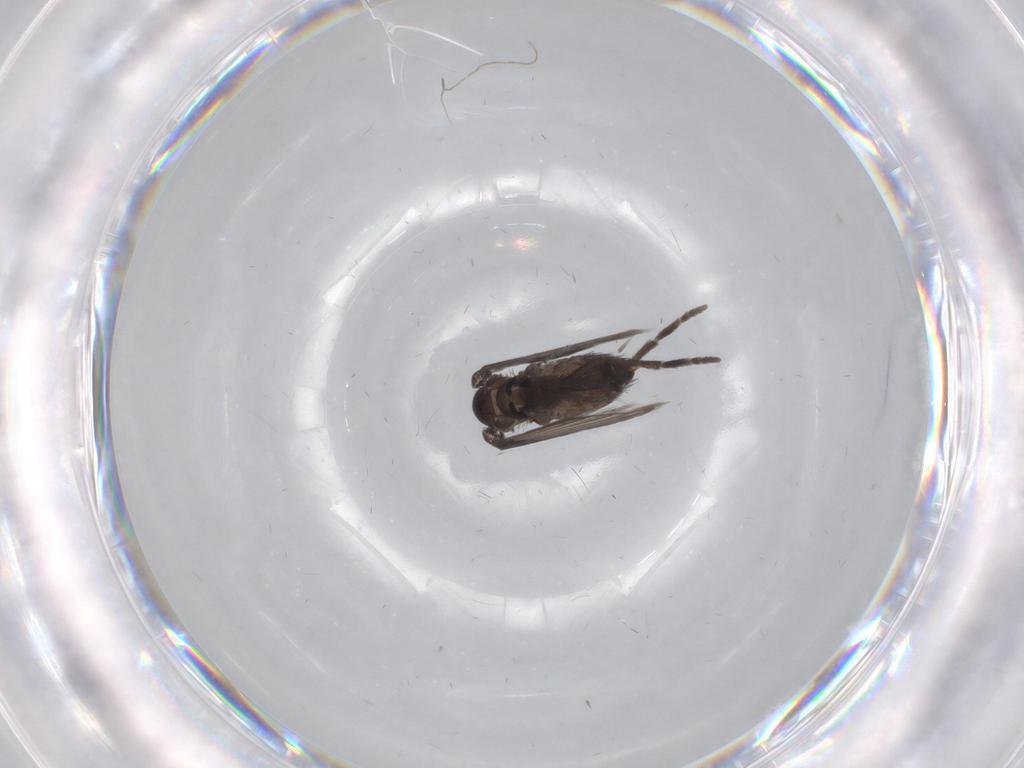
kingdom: Animalia
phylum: Arthropoda
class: Insecta
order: Diptera
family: Psychodidae
